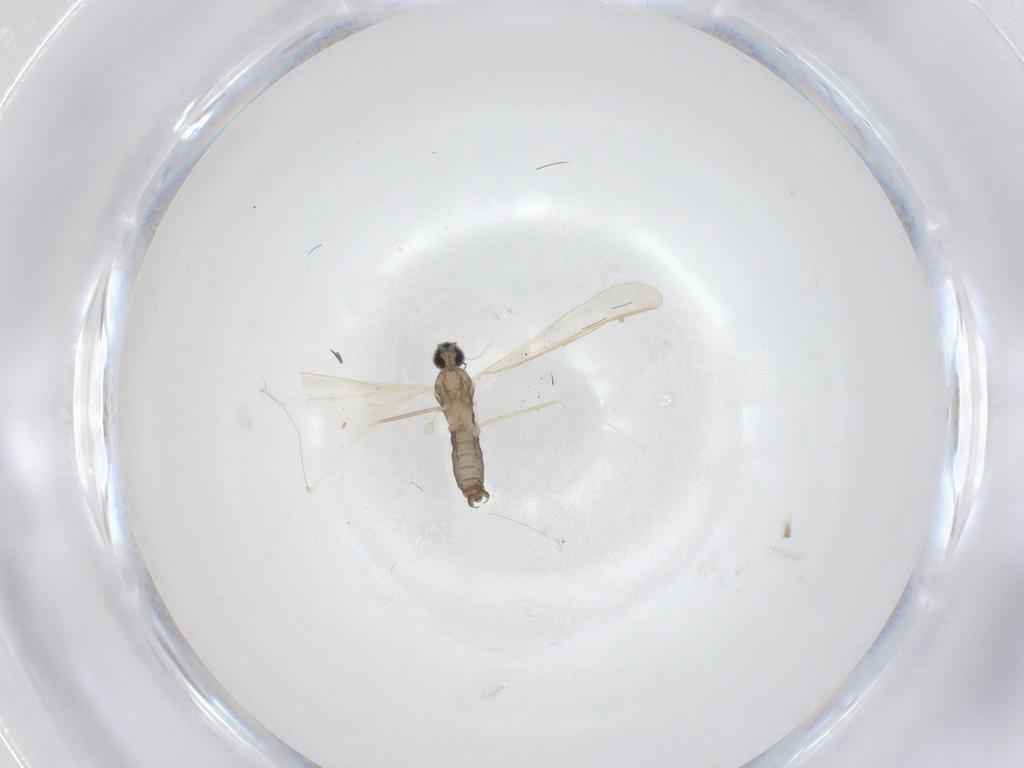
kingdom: Animalia
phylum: Arthropoda
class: Insecta
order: Diptera
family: Cecidomyiidae
